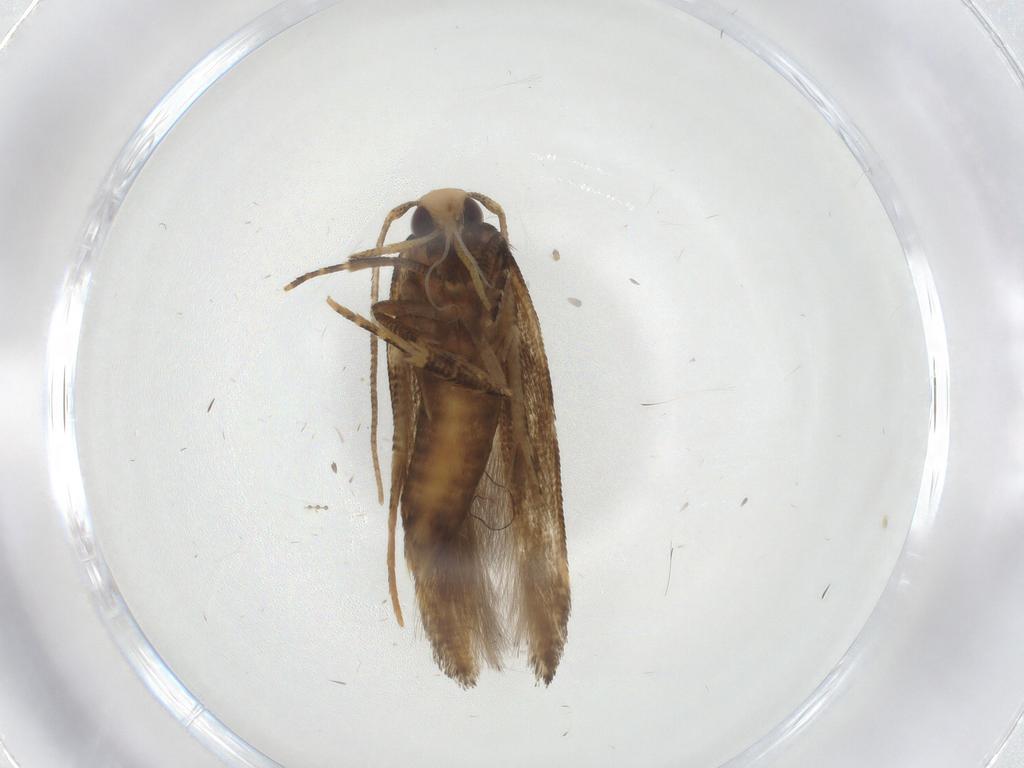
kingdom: Animalia
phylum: Arthropoda
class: Insecta
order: Lepidoptera
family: Cosmopterigidae
